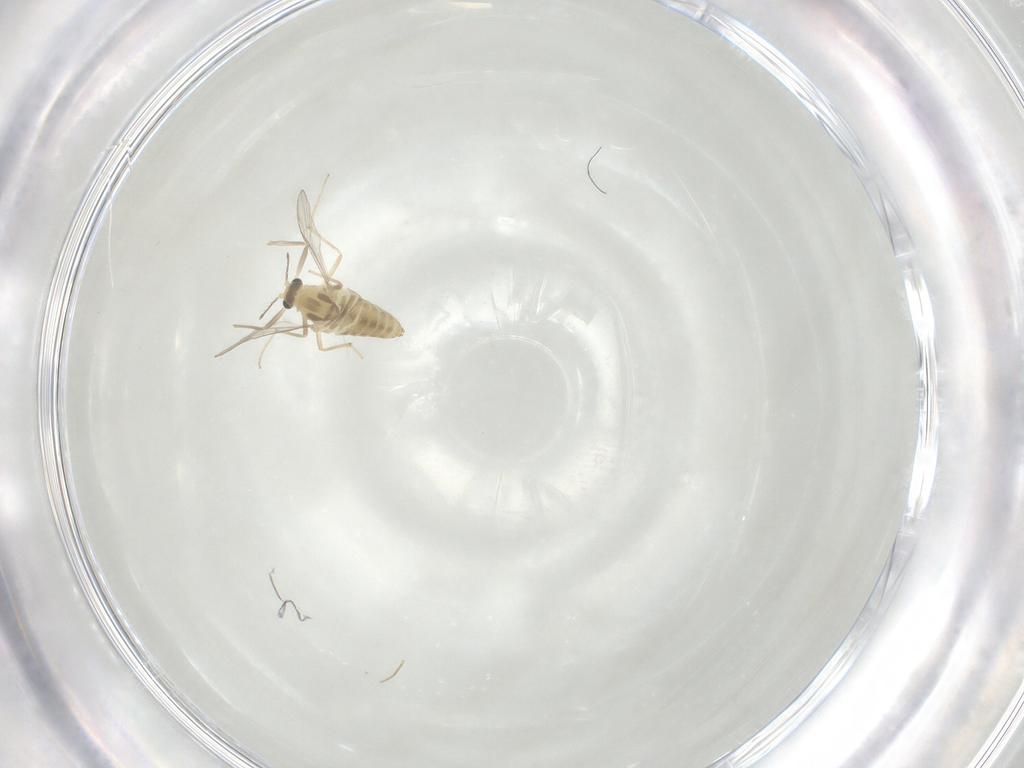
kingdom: Animalia
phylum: Arthropoda
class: Insecta
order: Diptera
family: Chironomidae
